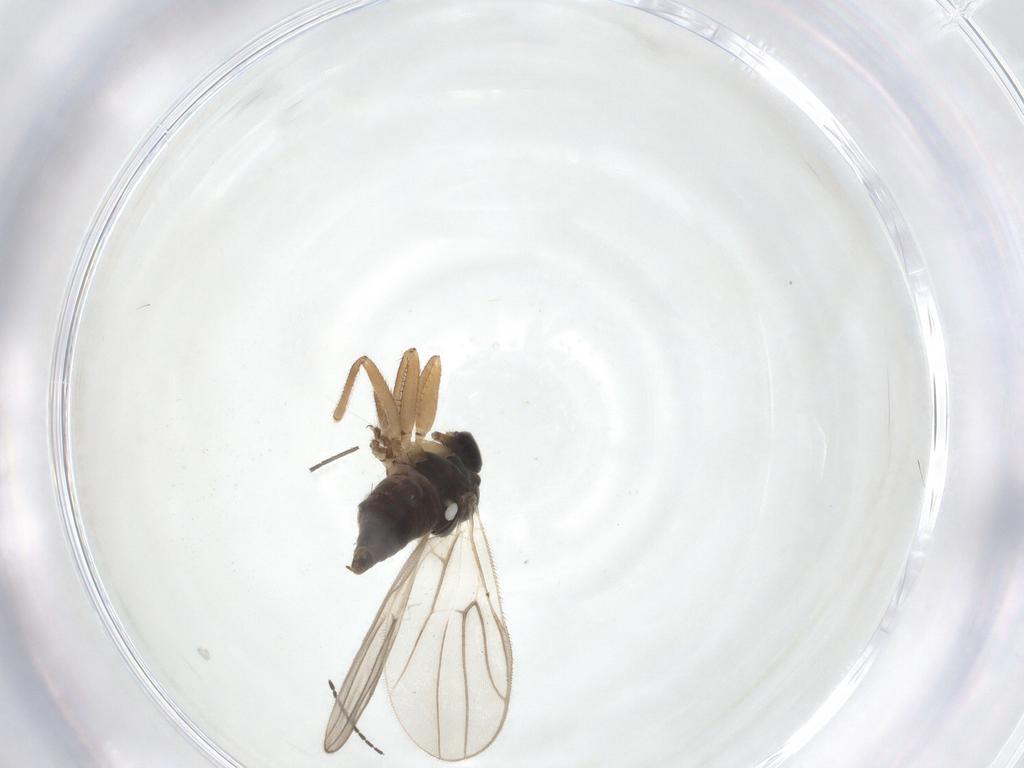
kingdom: Animalia
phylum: Arthropoda
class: Insecta
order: Diptera
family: Hybotidae
